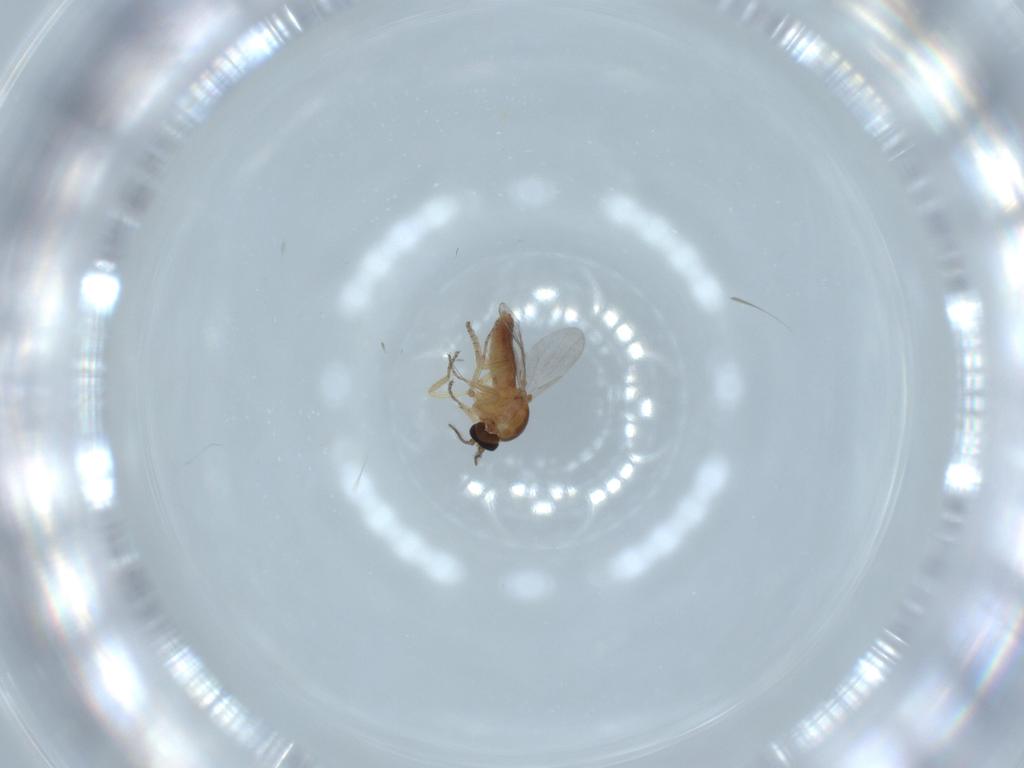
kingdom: Animalia
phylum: Arthropoda
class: Insecta
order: Diptera
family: Ceratopogonidae
